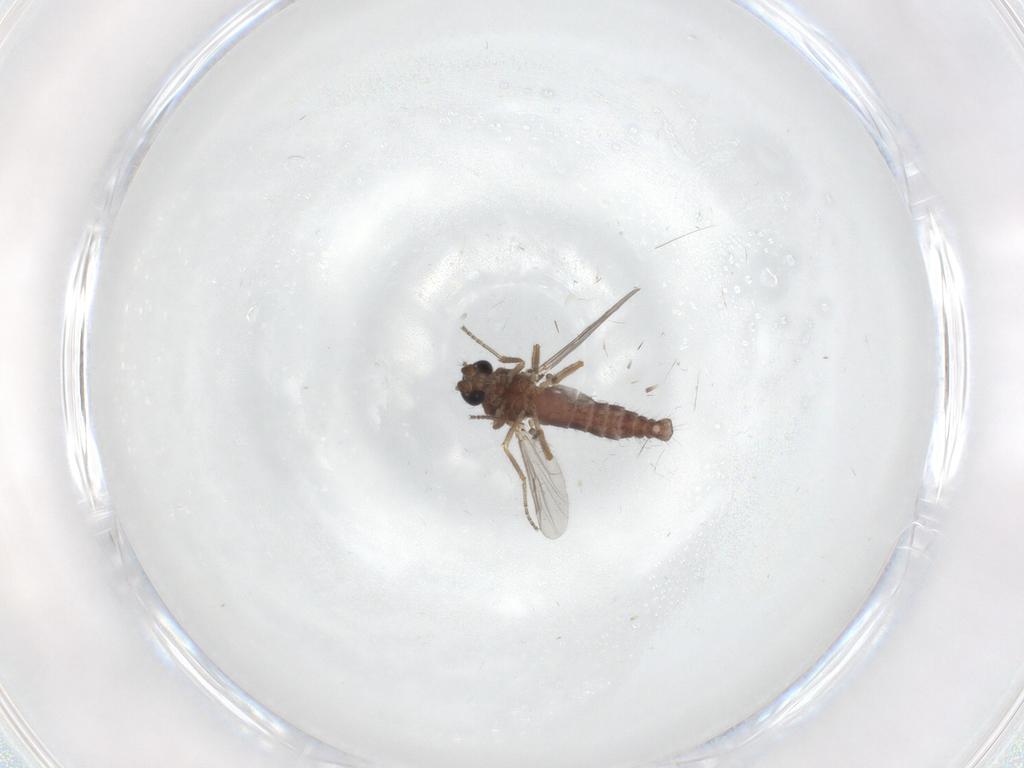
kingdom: Animalia
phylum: Arthropoda
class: Insecta
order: Diptera
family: Ceratopogonidae
